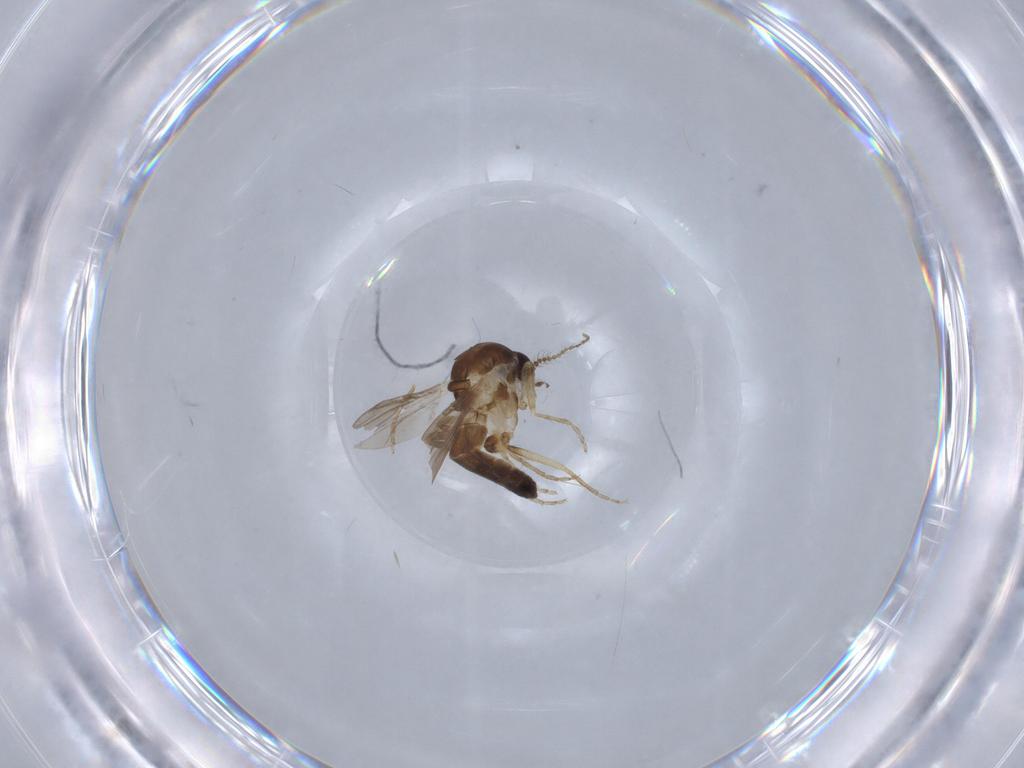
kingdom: Animalia
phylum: Arthropoda
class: Insecta
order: Diptera
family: Ceratopogonidae
